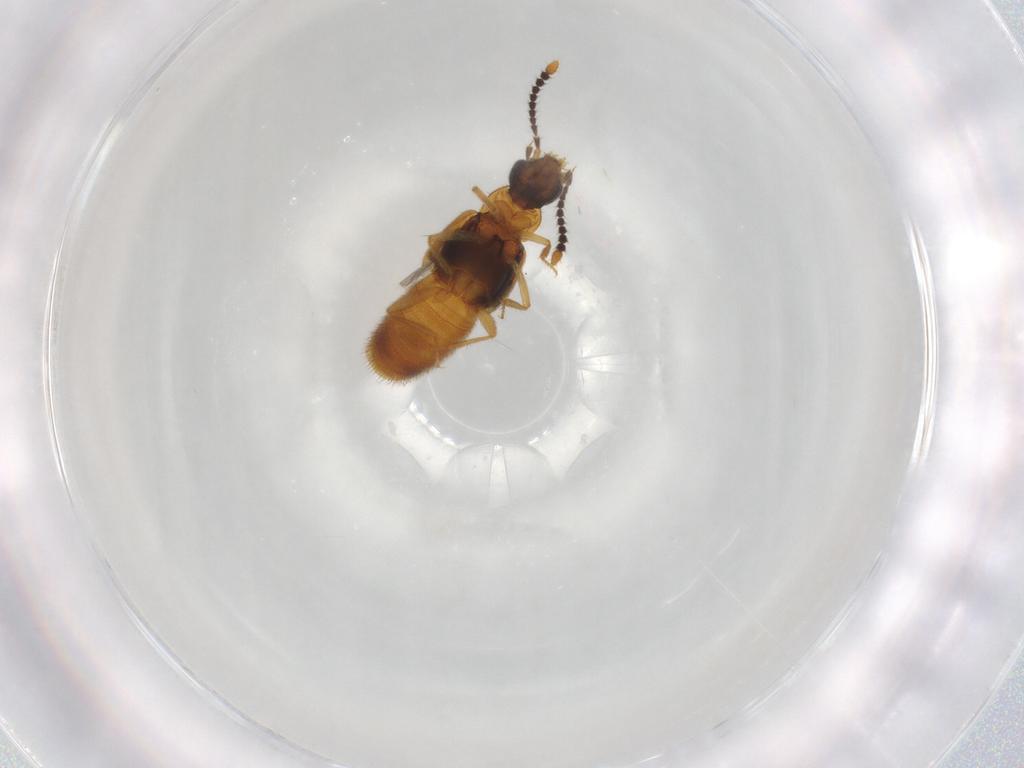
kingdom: Animalia
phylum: Arthropoda
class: Insecta
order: Coleoptera
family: Staphylinidae
